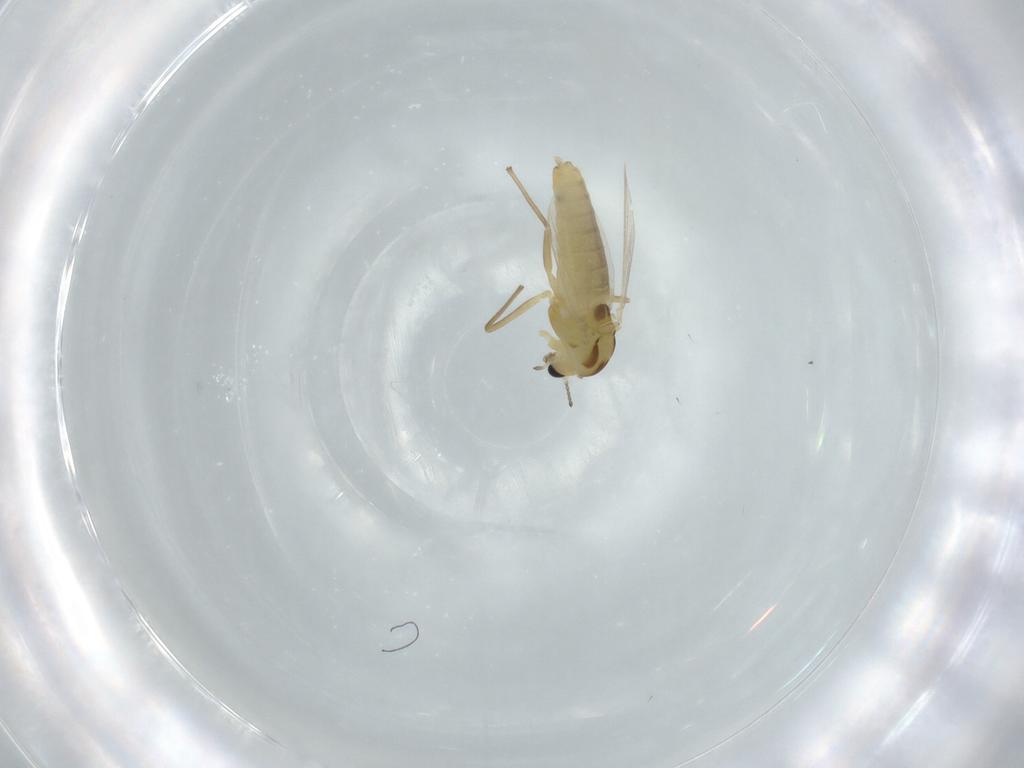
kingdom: Animalia
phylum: Arthropoda
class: Insecta
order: Diptera
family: Chironomidae
